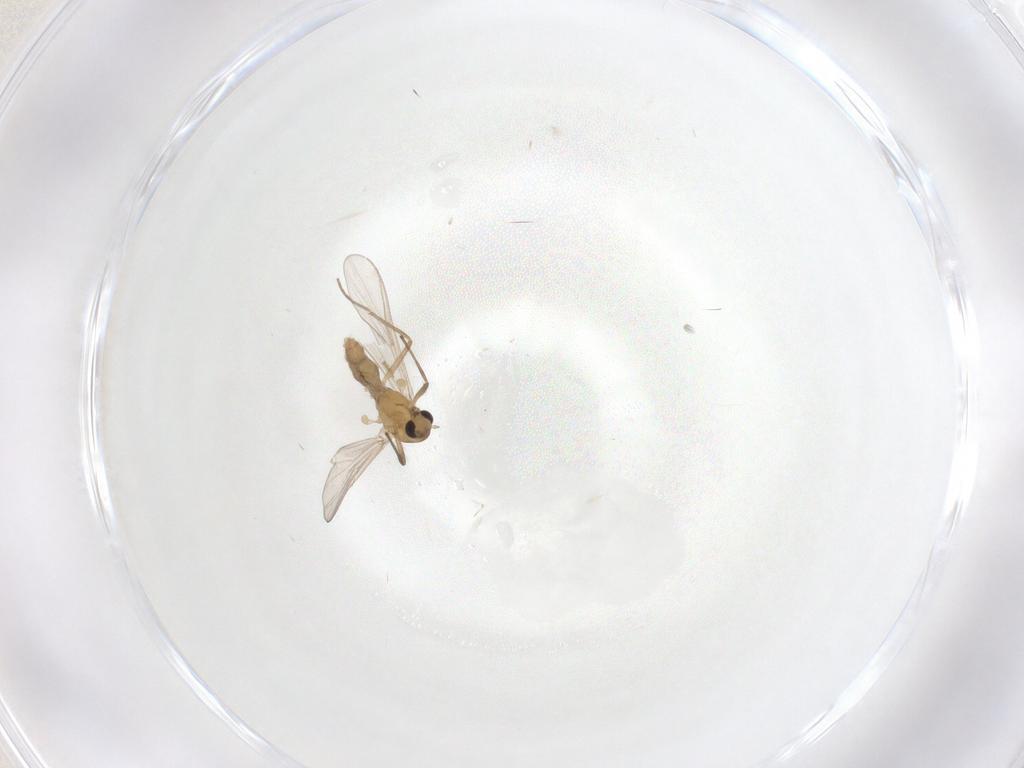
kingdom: Animalia
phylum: Arthropoda
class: Insecta
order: Diptera
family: Chironomidae
